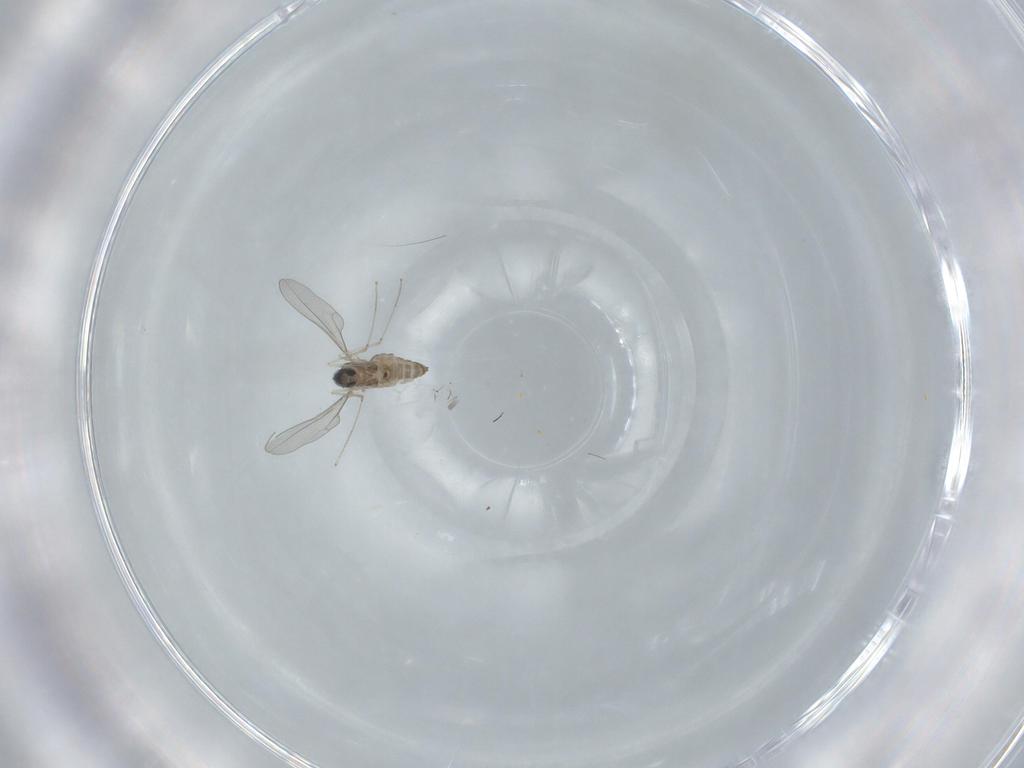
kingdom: Animalia
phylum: Arthropoda
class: Insecta
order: Diptera
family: Cecidomyiidae
